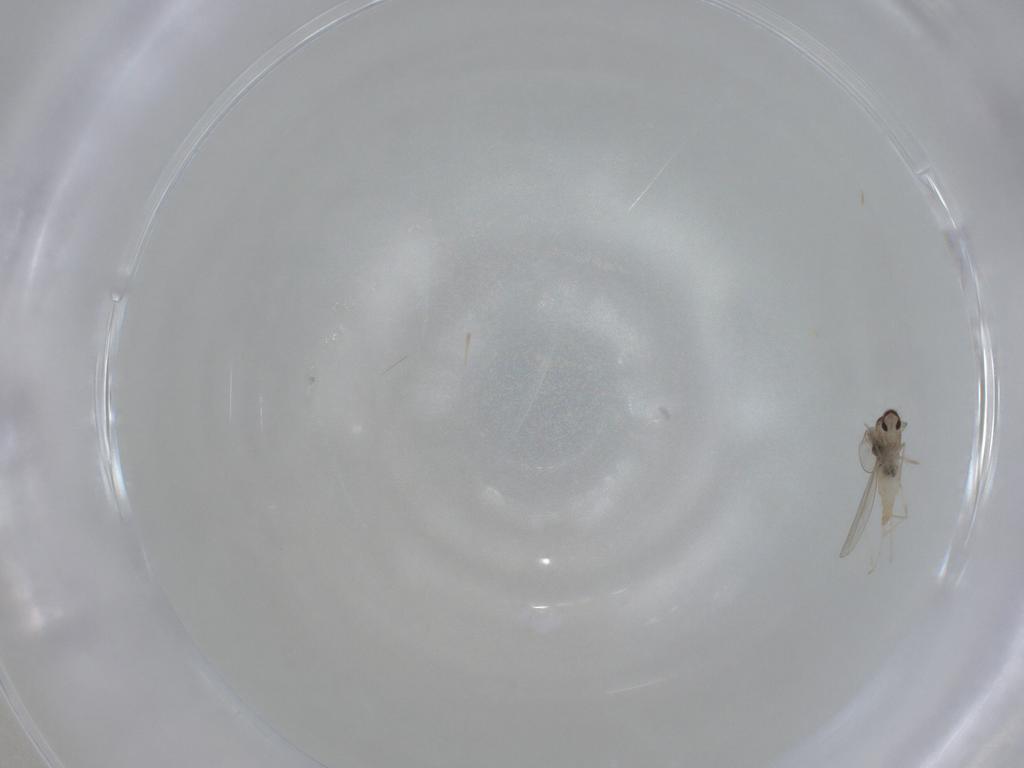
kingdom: Animalia
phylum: Arthropoda
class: Insecta
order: Diptera
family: Cecidomyiidae
